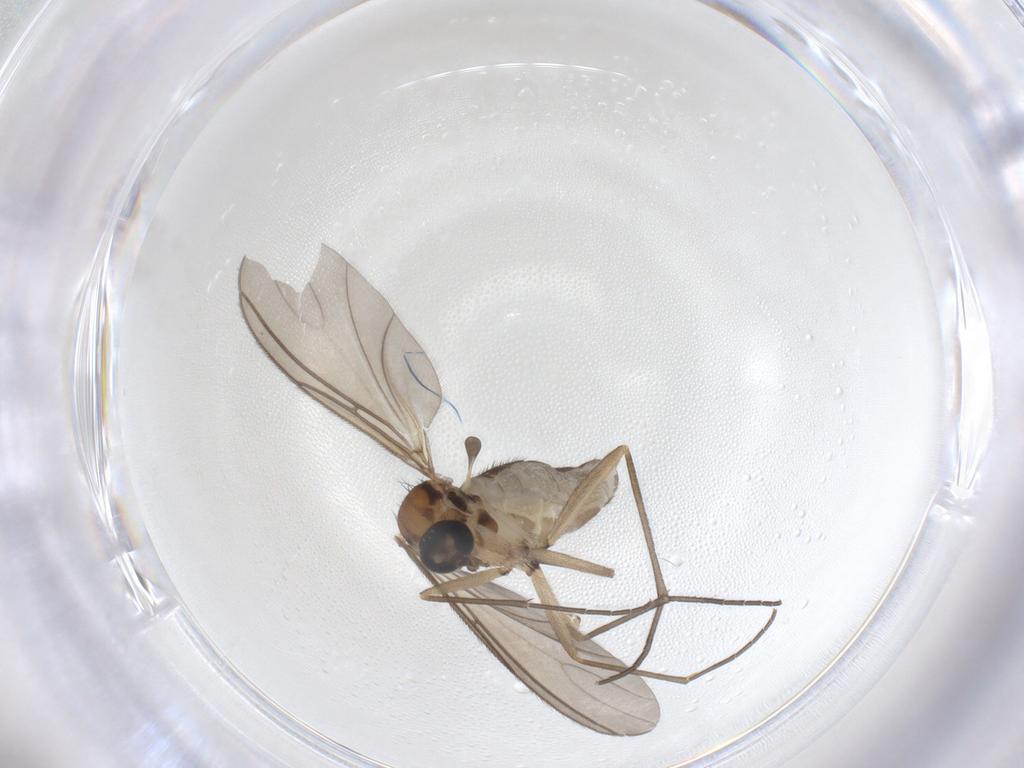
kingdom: Animalia
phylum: Arthropoda
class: Insecta
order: Diptera
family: Sciaridae
